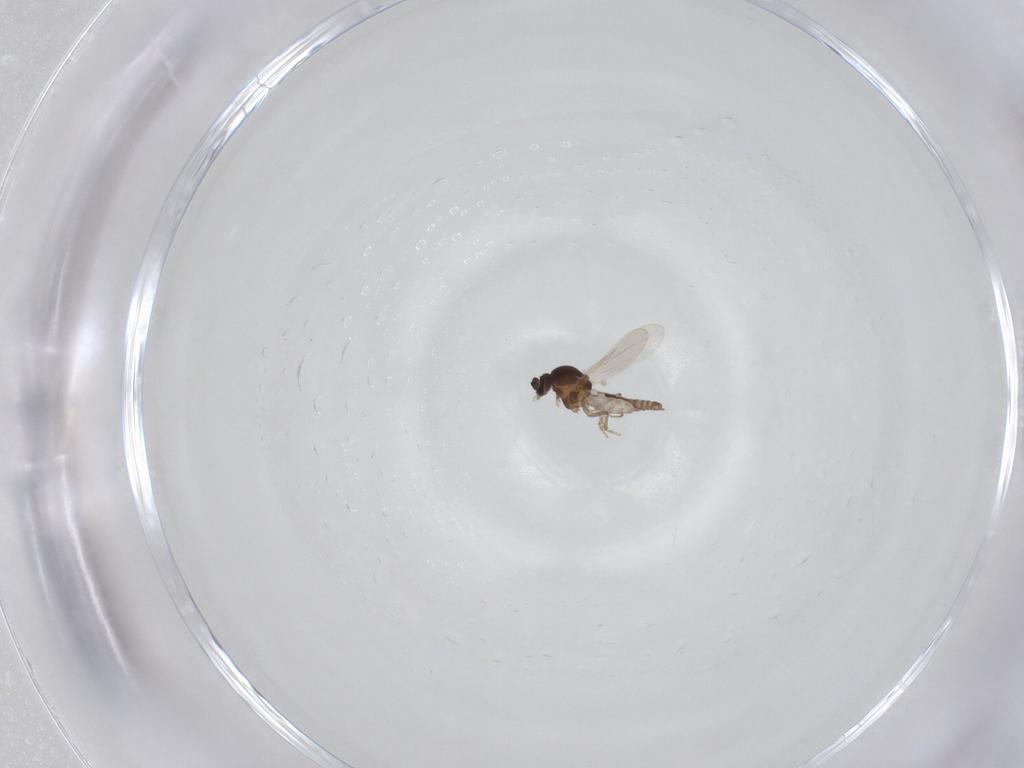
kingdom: Animalia
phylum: Arthropoda
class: Insecta
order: Diptera
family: Ceratopogonidae
